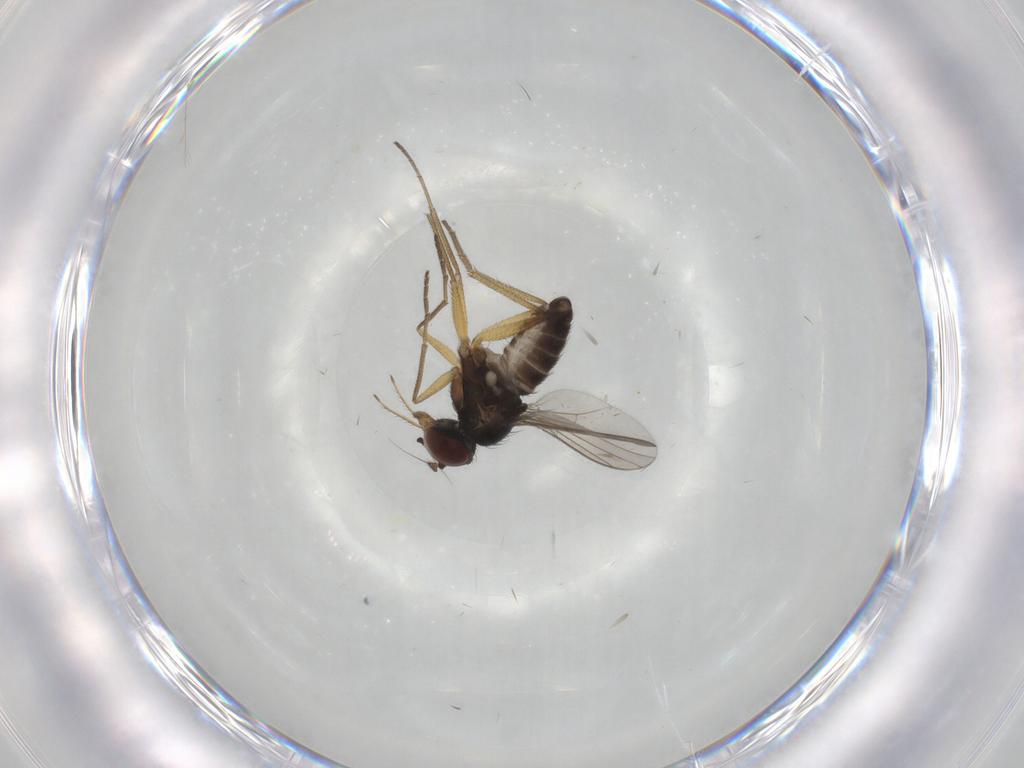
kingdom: Animalia
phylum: Arthropoda
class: Insecta
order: Diptera
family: Dolichopodidae
